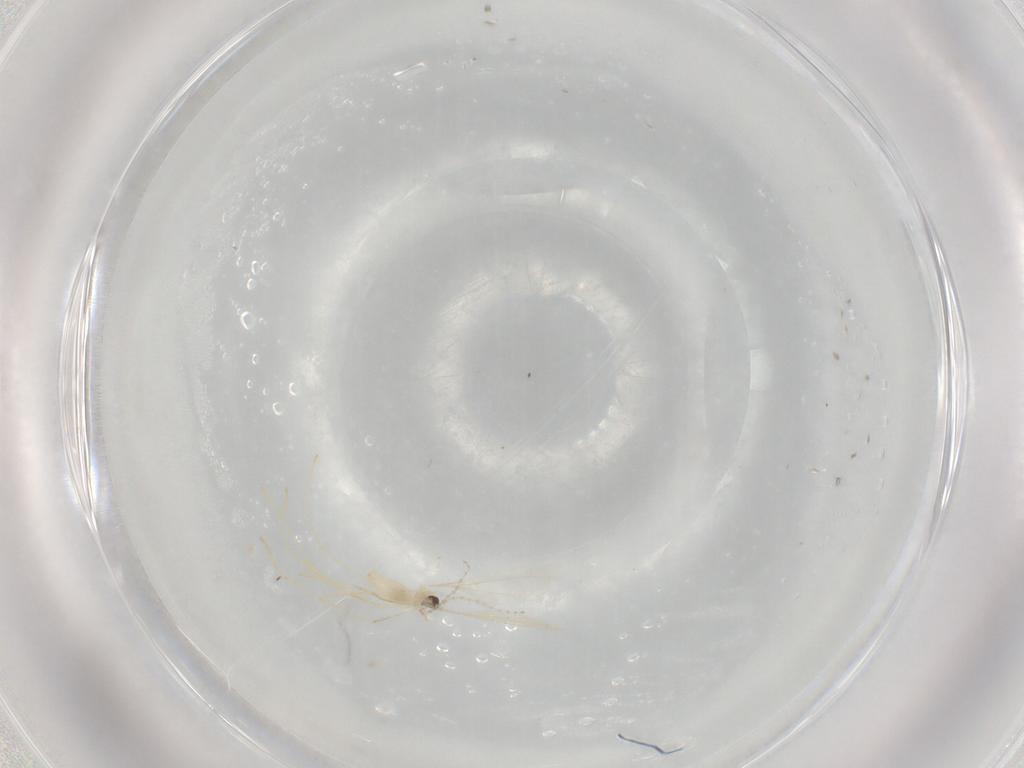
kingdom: Animalia
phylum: Arthropoda
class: Insecta
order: Diptera
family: Cecidomyiidae
